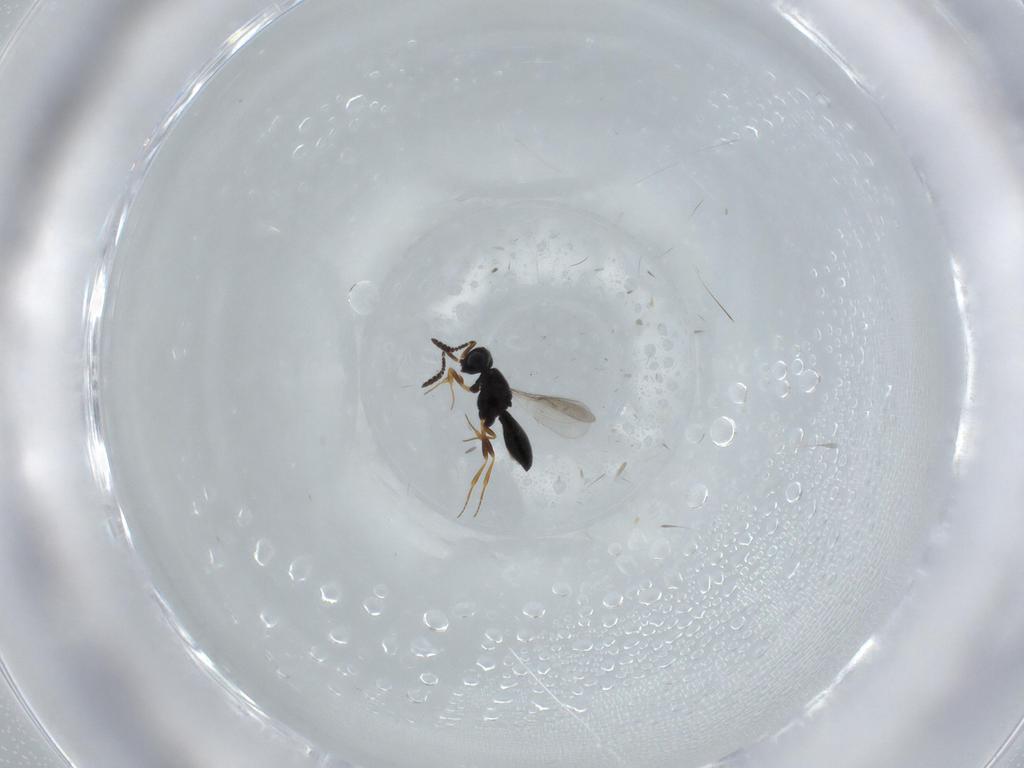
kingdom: Animalia
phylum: Arthropoda
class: Insecta
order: Hymenoptera
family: Scelionidae
